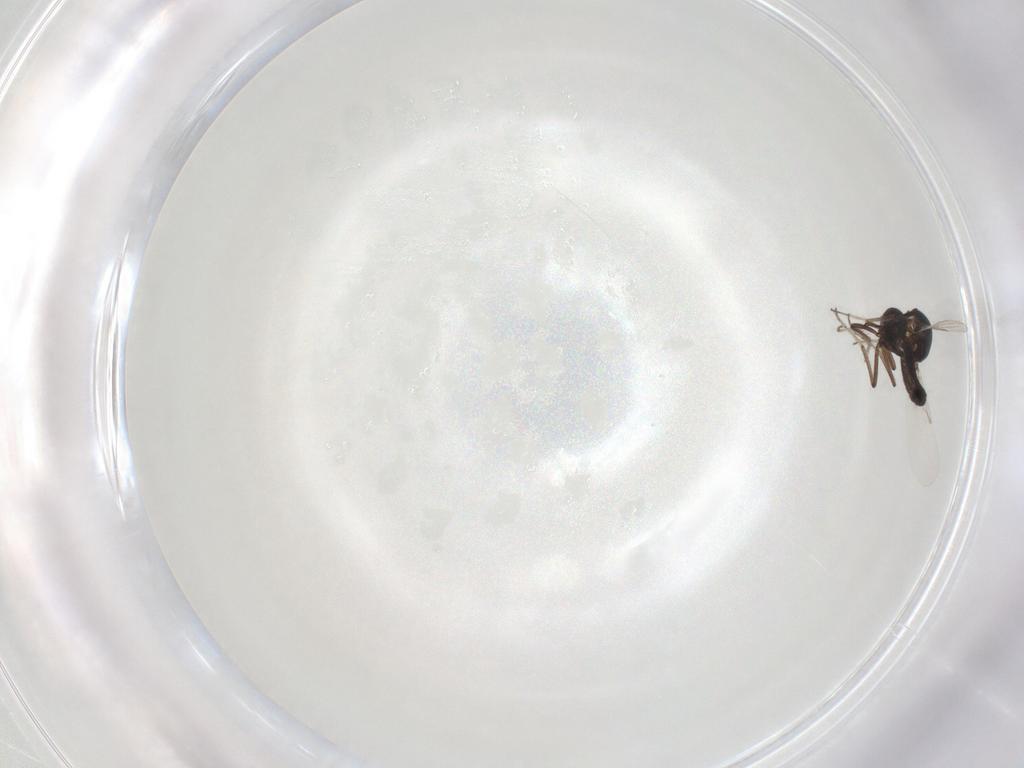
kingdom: Animalia
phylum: Arthropoda
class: Insecta
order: Diptera
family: Ceratopogonidae
